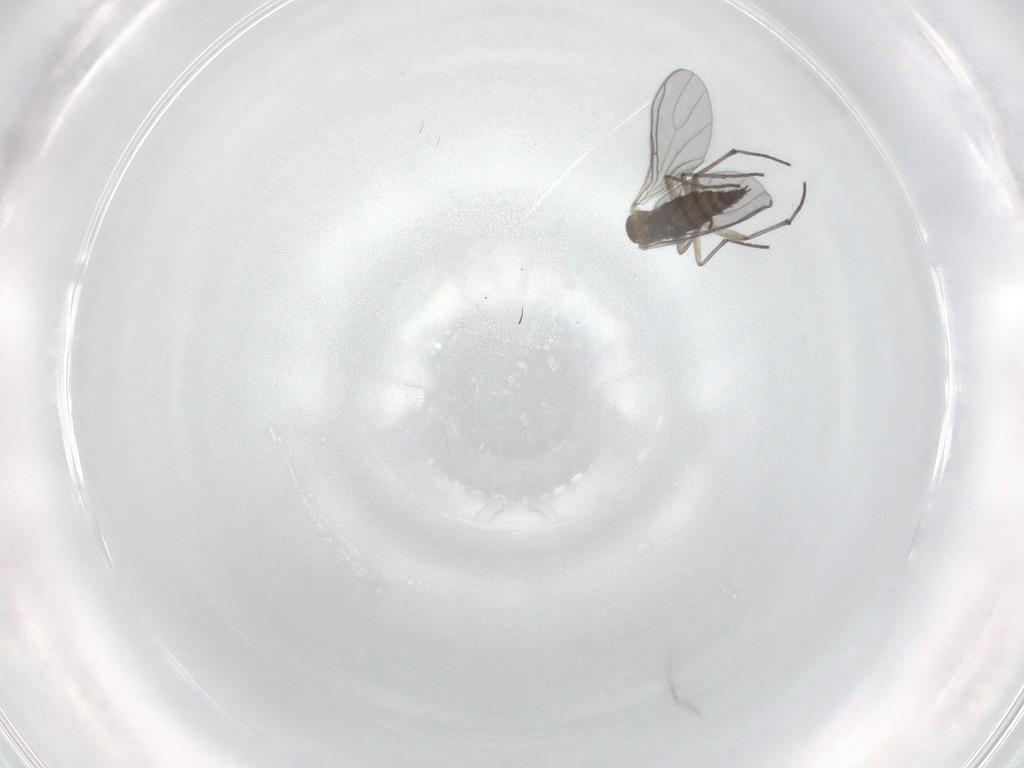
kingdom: Animalia
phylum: Arthropoda
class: Insecta
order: Diptera
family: Sciaridae
